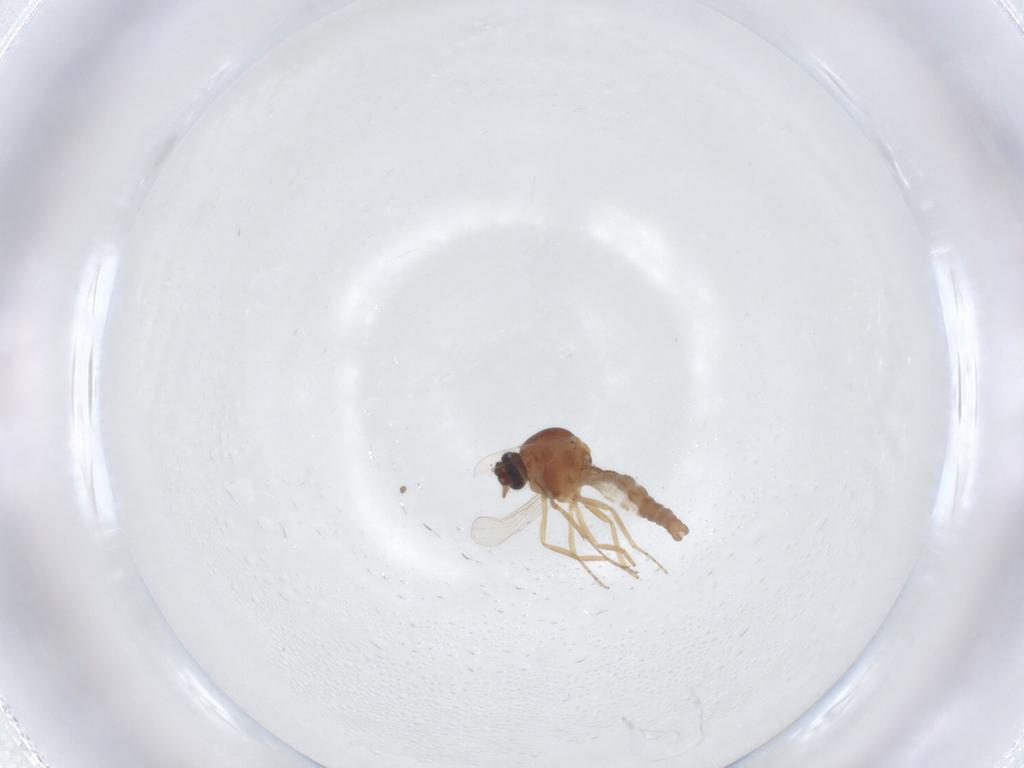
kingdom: Animalia
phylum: Arthropoda
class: Insecta
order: Diptera
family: Ceratopogonidae
